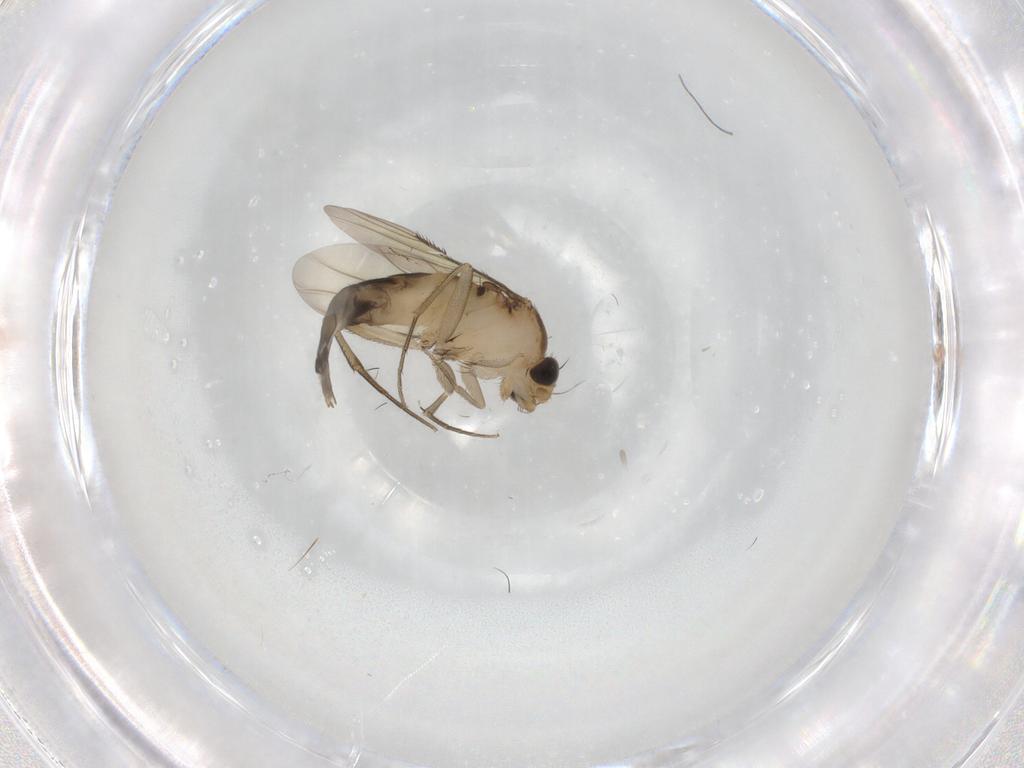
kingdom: Animalia
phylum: Arthropoda
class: Insecta
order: Diptera
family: Phoridae
